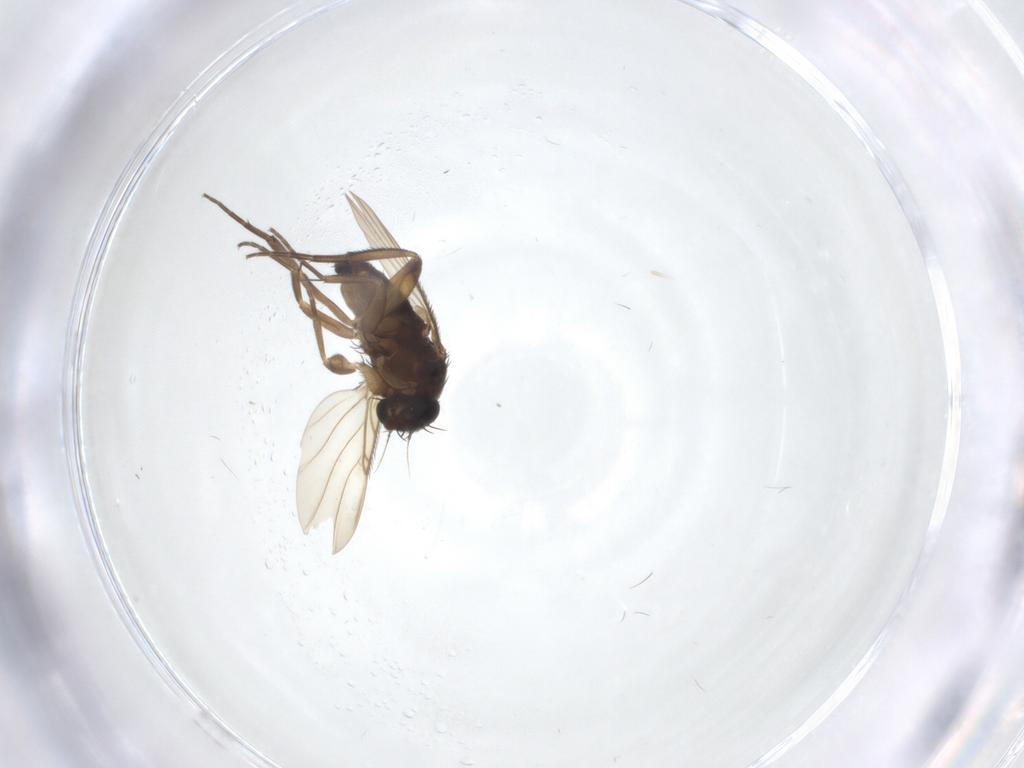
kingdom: Animalia
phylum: Arthropoda
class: Insecta
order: Diptera
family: Phoridae
